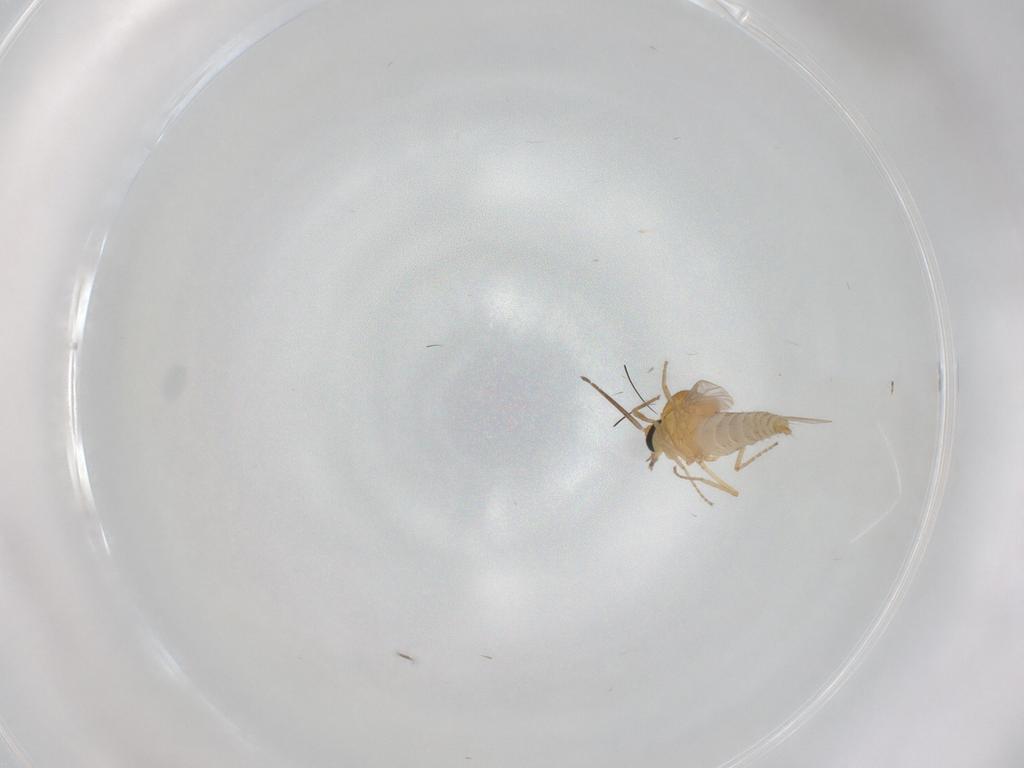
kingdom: Animalia
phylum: Arthropoda
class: Insecta
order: Diptera
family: Ceratopogonidae
